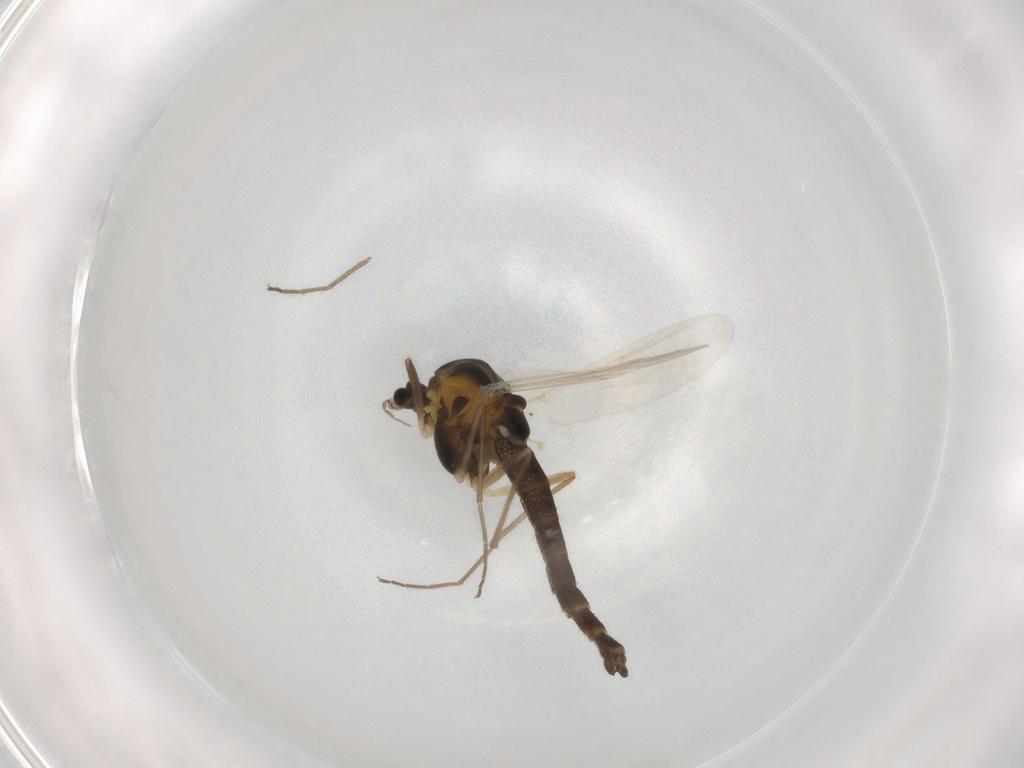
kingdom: Animalia
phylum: Arthropoda
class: Insecta
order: Diptera
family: Chironomidae
